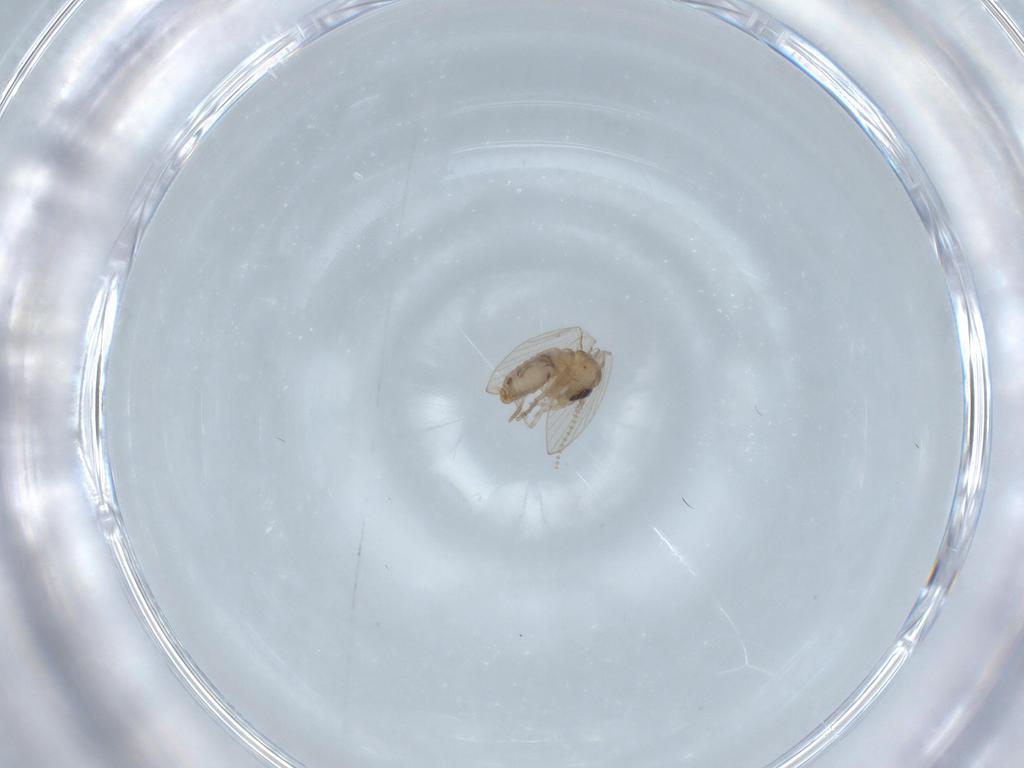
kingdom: Animalia
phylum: Arthropoda
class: Insecta
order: Diptera
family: Psychodidae
